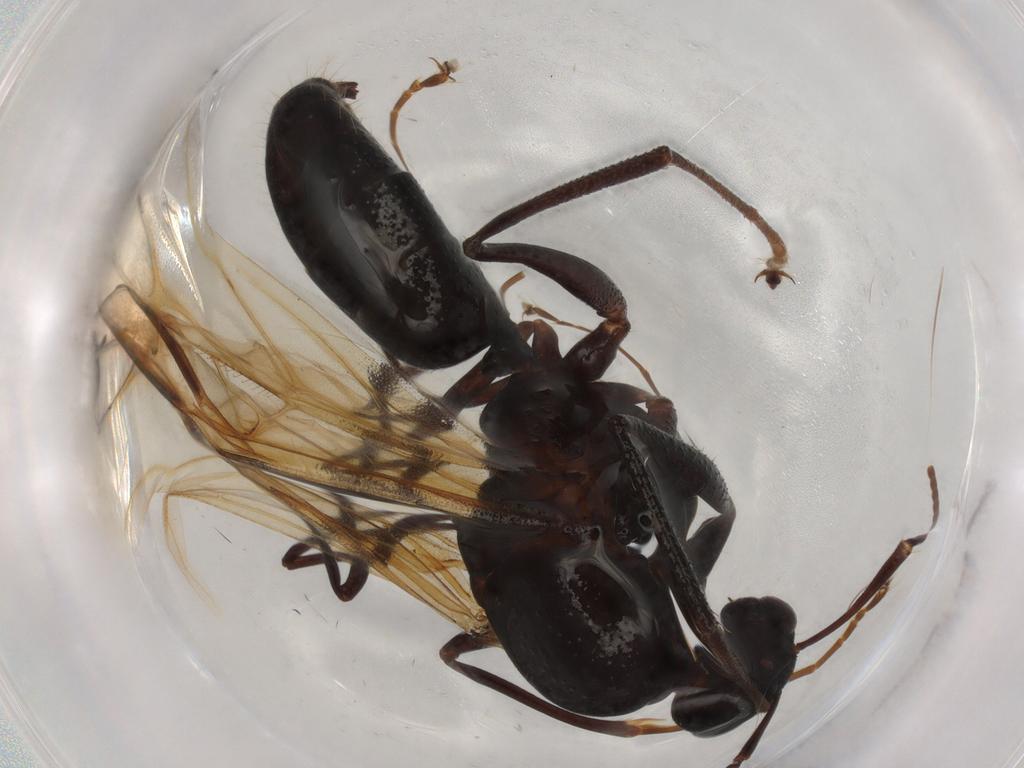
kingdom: Animalia
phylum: Arthropoda
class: Insecta
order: Hymenoptera
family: Formicidae
